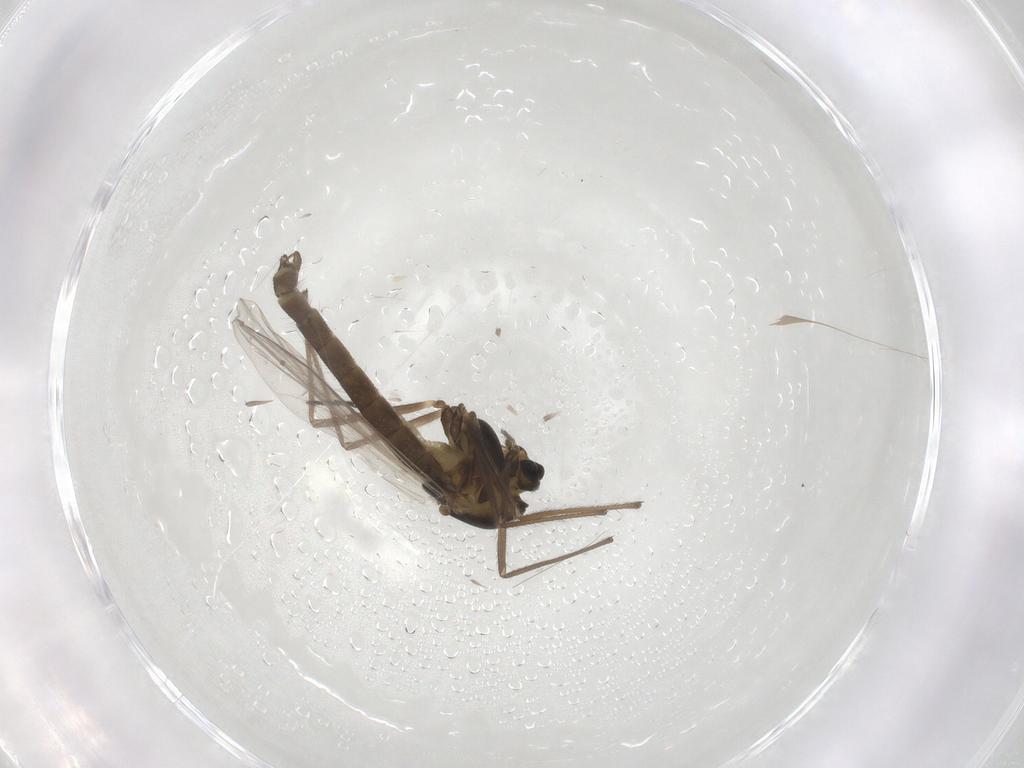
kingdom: Animalia
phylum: Arthropoda
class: Insecta
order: Diptera
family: Chironomidae
